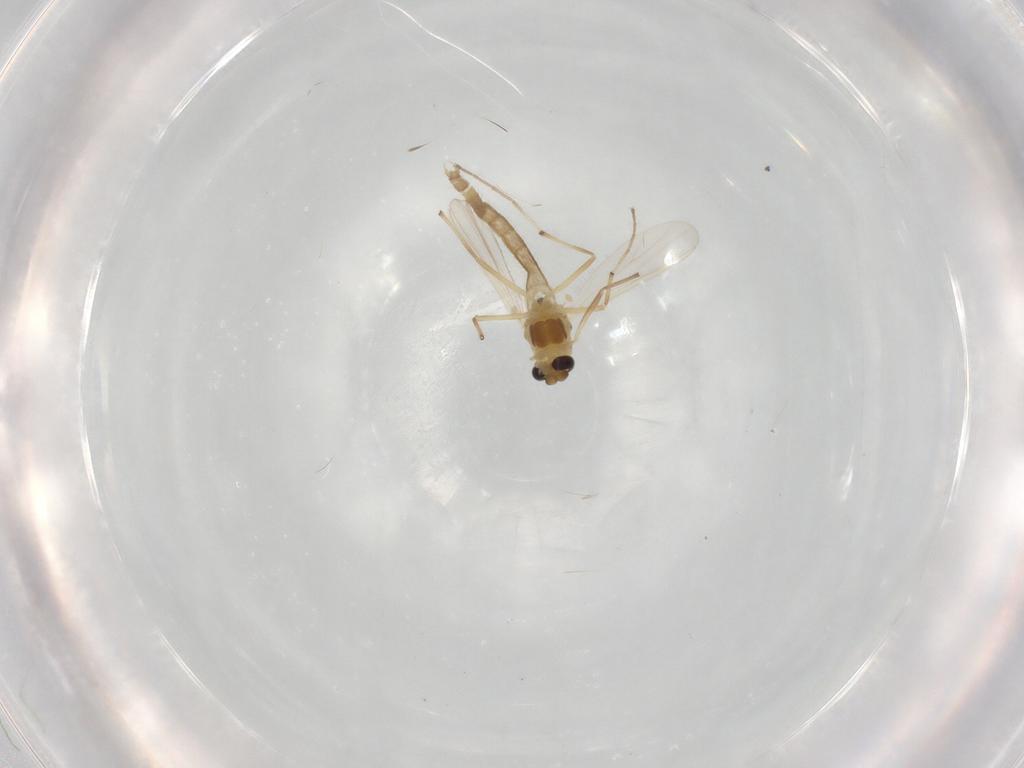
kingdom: Animalia
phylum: Arthropoda
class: Insecta
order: Diptera
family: Chironomidae
